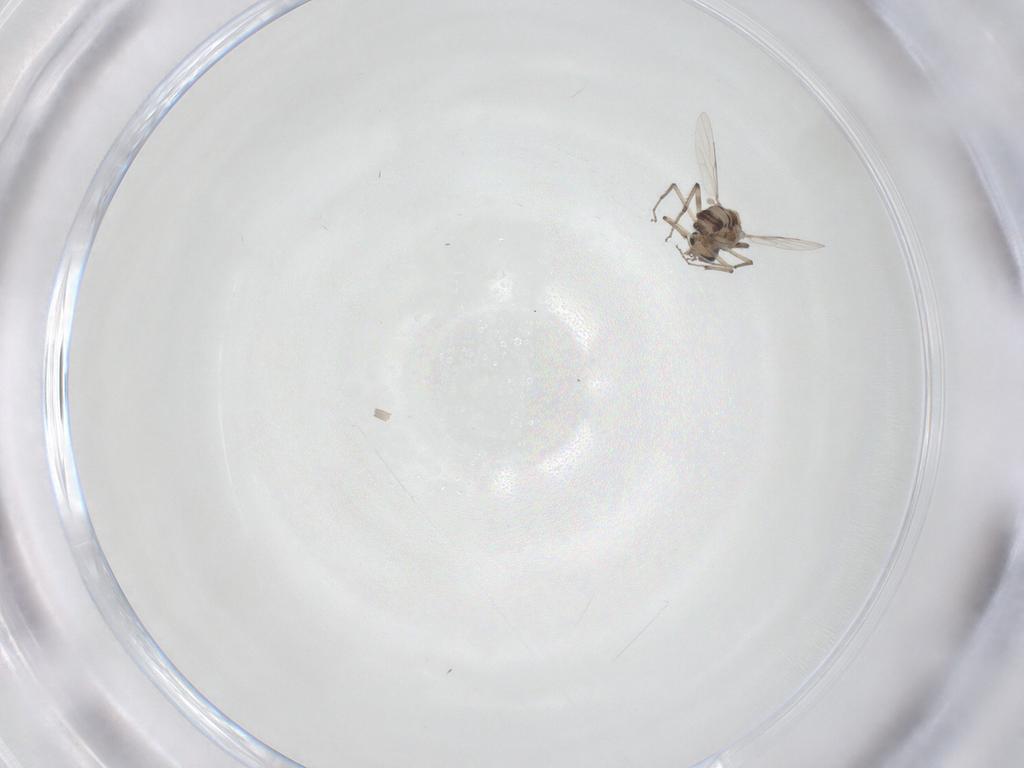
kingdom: Animalia
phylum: Arthropoda
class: Insecta
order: Diptera
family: Ceratopogonidae
